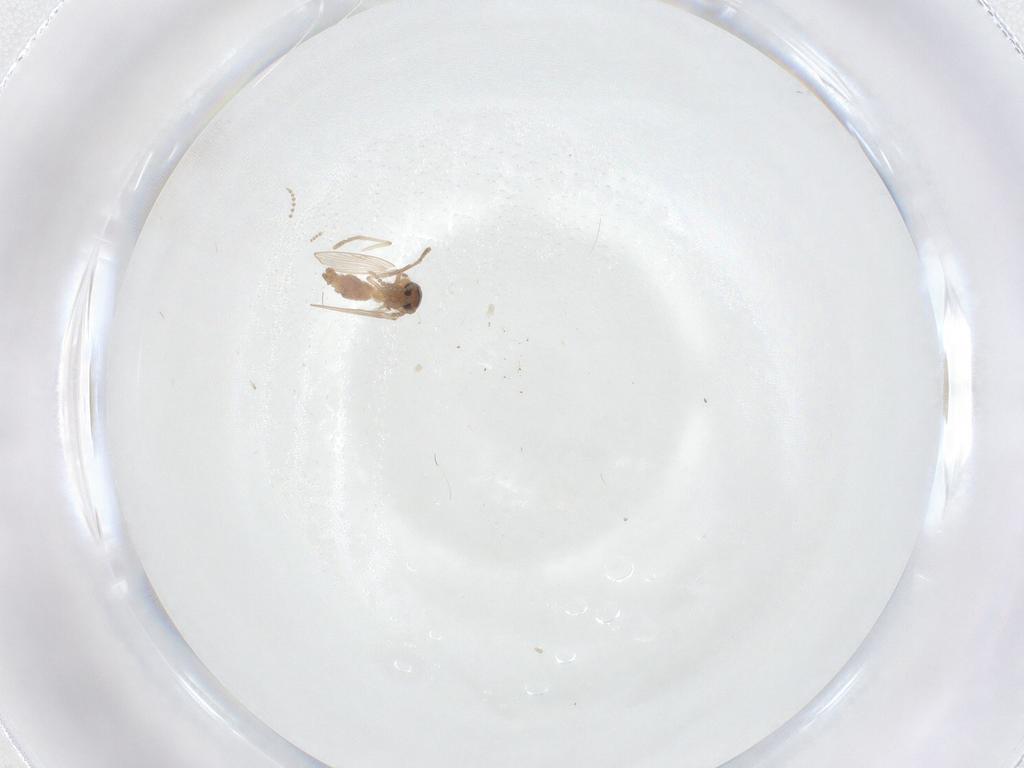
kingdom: Animalia
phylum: Arthropoda
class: Insecta
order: Diptera
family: Psychodidae
